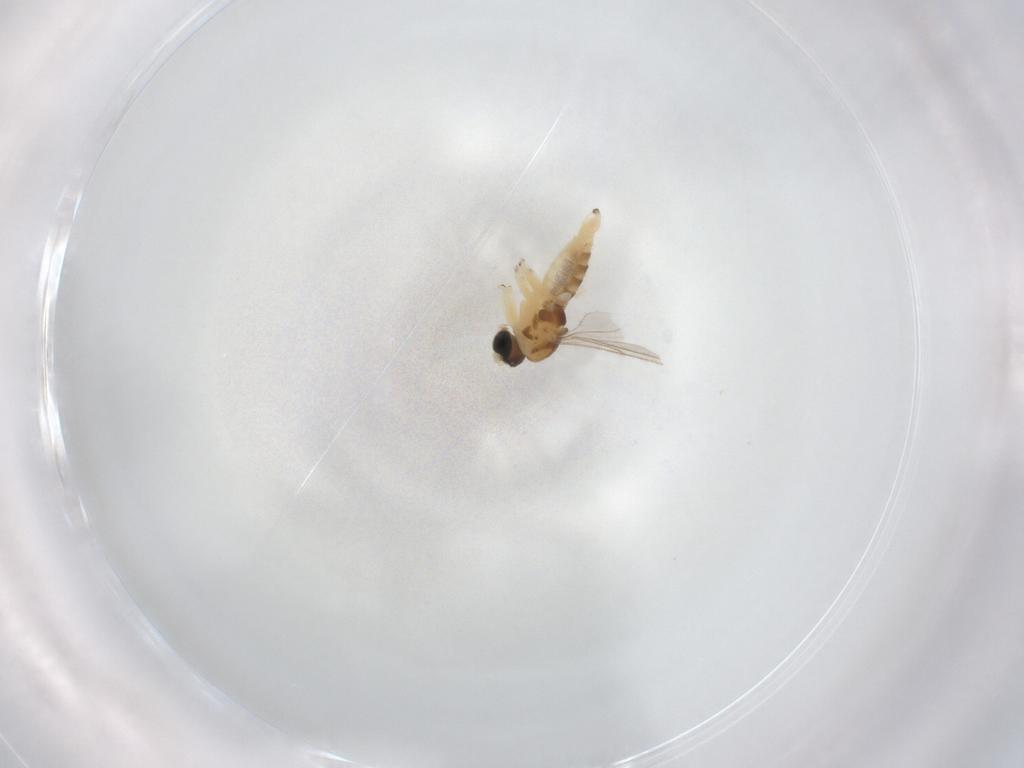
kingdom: Animalia
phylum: Arthropoda
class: Insecta
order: Diptera
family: Sciaridae
